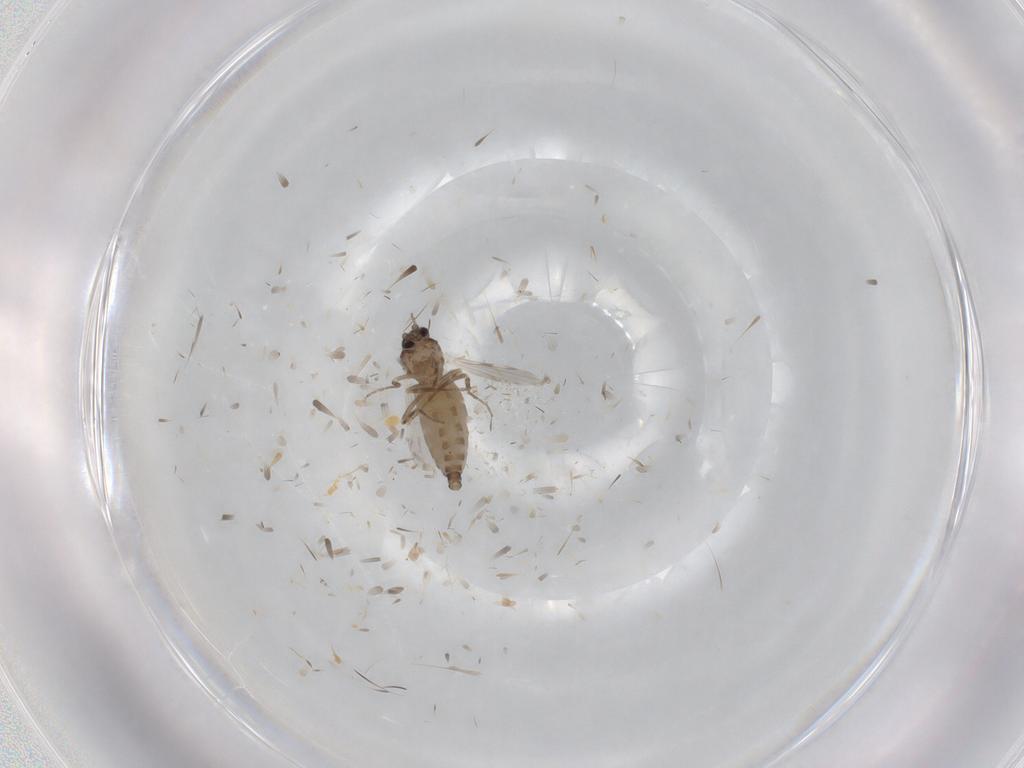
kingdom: Animalia
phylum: Arthropoda
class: Insecta
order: Diptera
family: Ceratopogonidae
